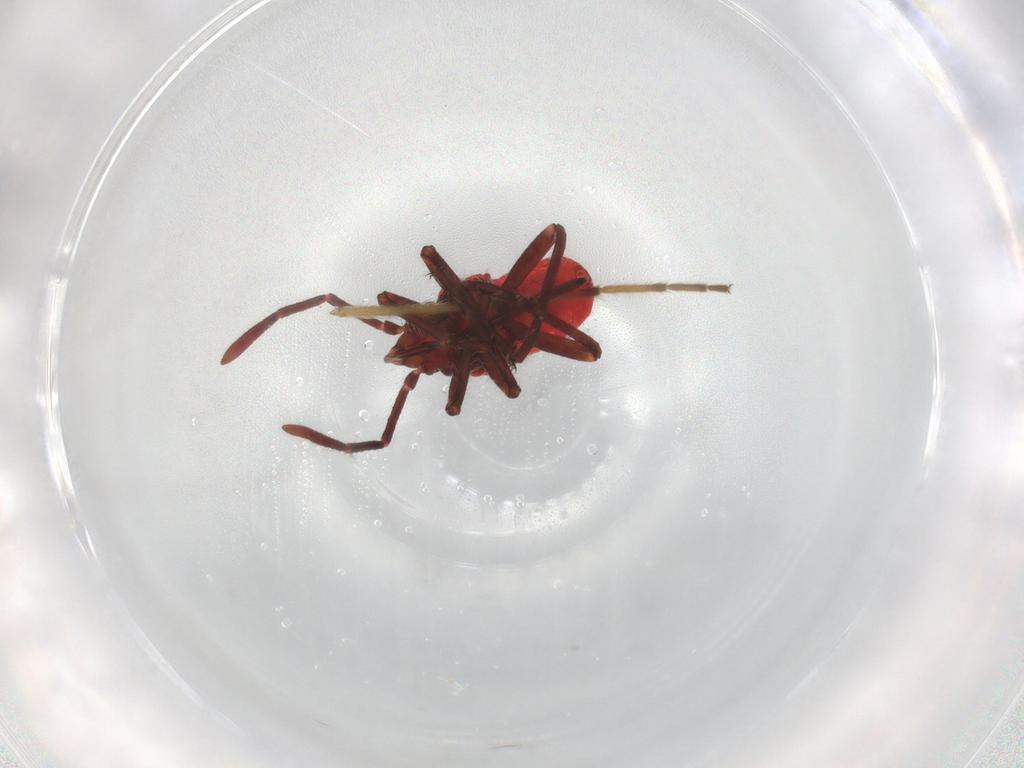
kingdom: Animalia
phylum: Arthropoda
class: Insecta
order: Hemiptera
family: Lygaeoidea_incertae_sedis
